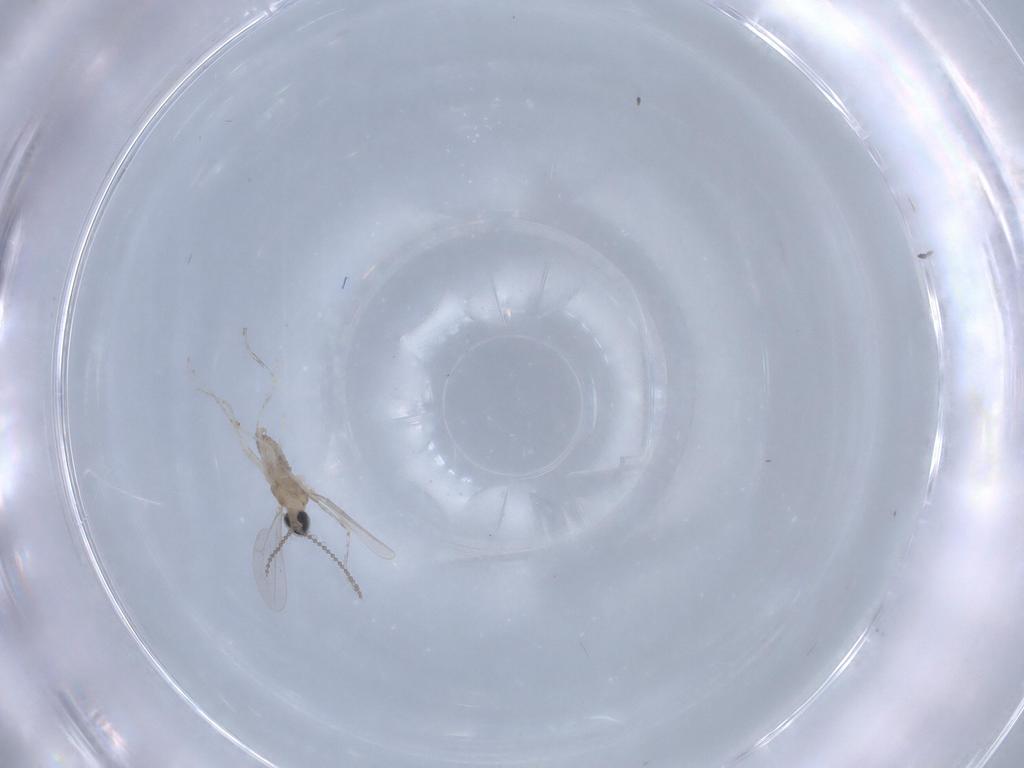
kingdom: Animalia
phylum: Arthropoda
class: Insecta
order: Diptera
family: Cecidomyiidae
